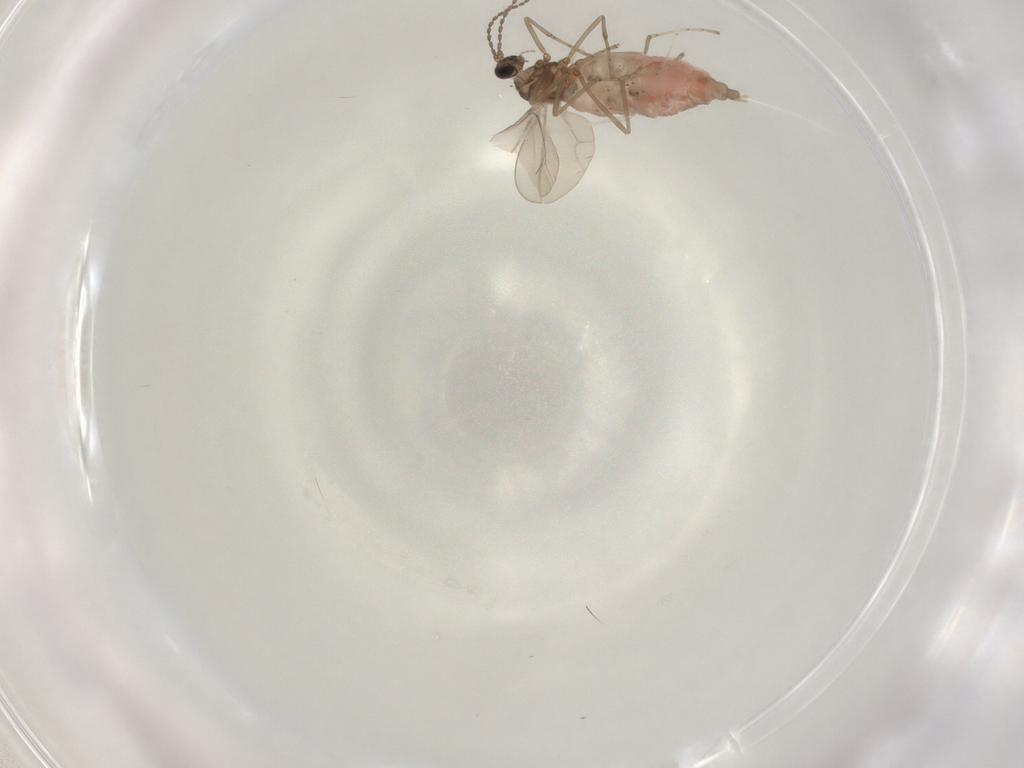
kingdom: Animalia
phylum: Arthropoda
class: Insecta
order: Diptera
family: Muscidae
